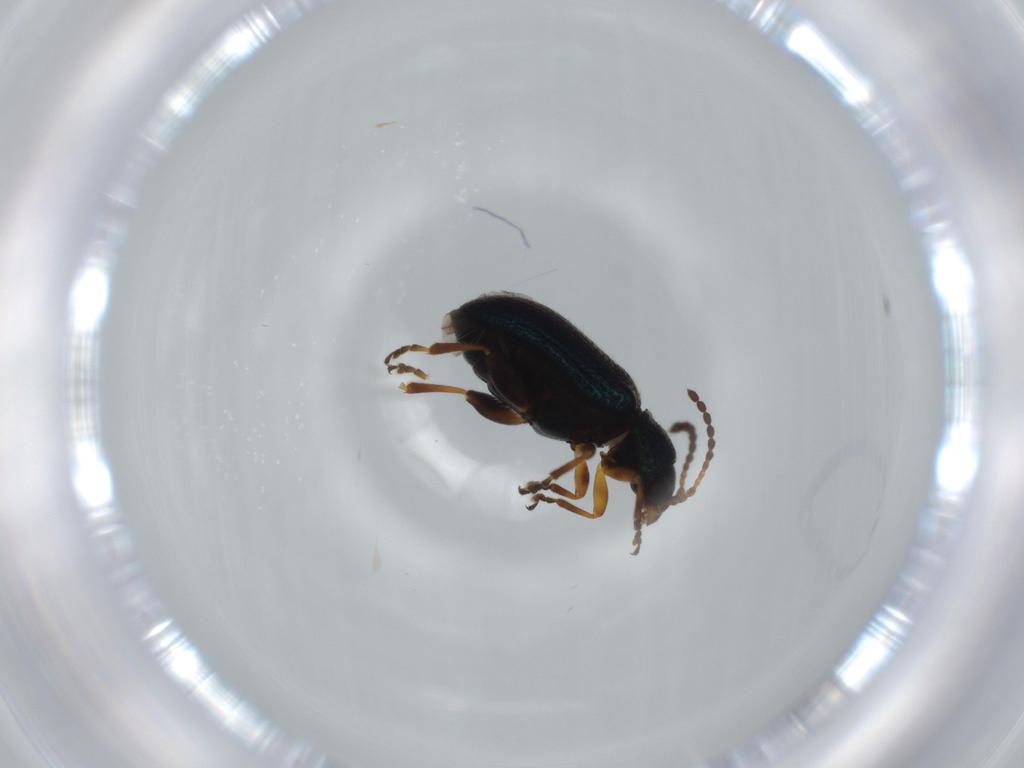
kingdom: Animalia
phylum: Arthropoda
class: Insecta
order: Coleoptera
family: Chrysomelidae
